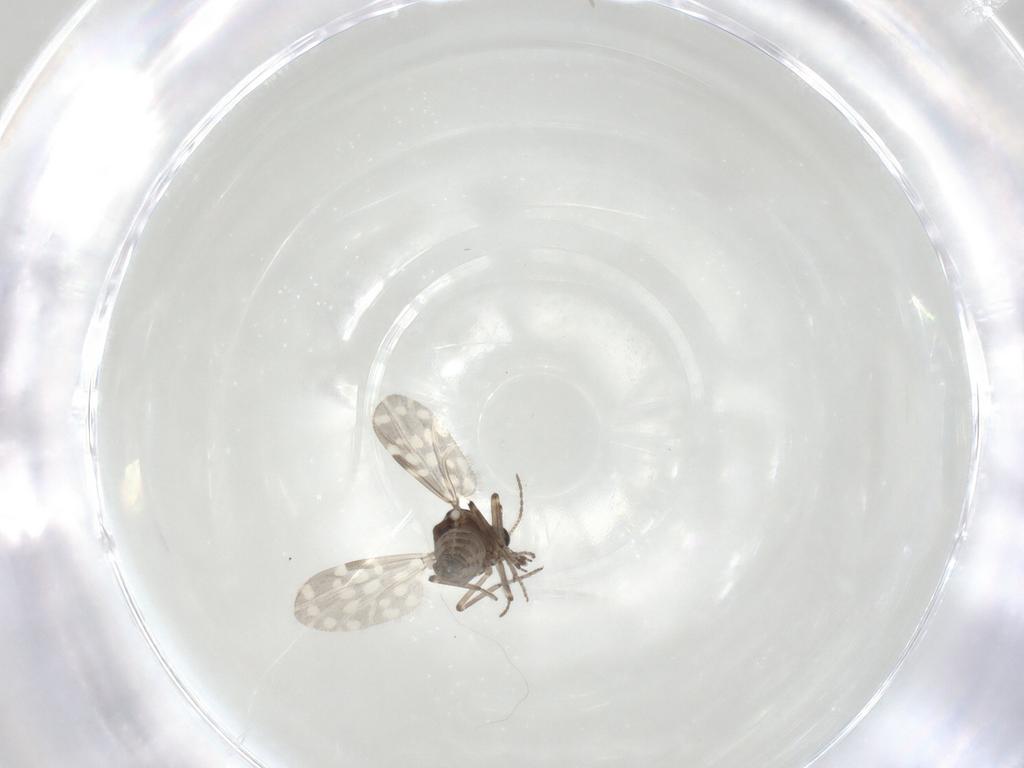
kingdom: Animalia
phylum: Arthropoda
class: Insecta
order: Diptera
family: Ceratopogonidae
